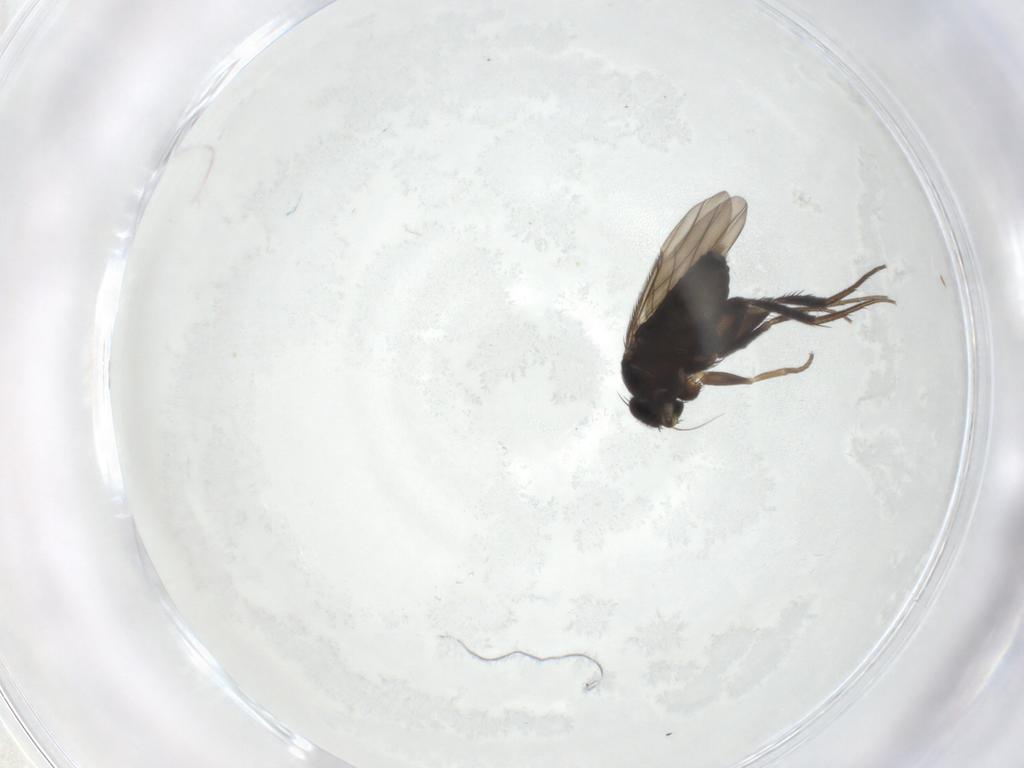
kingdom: Animalia
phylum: Arthropoda
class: Insecta
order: Diptera
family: Phoridae
